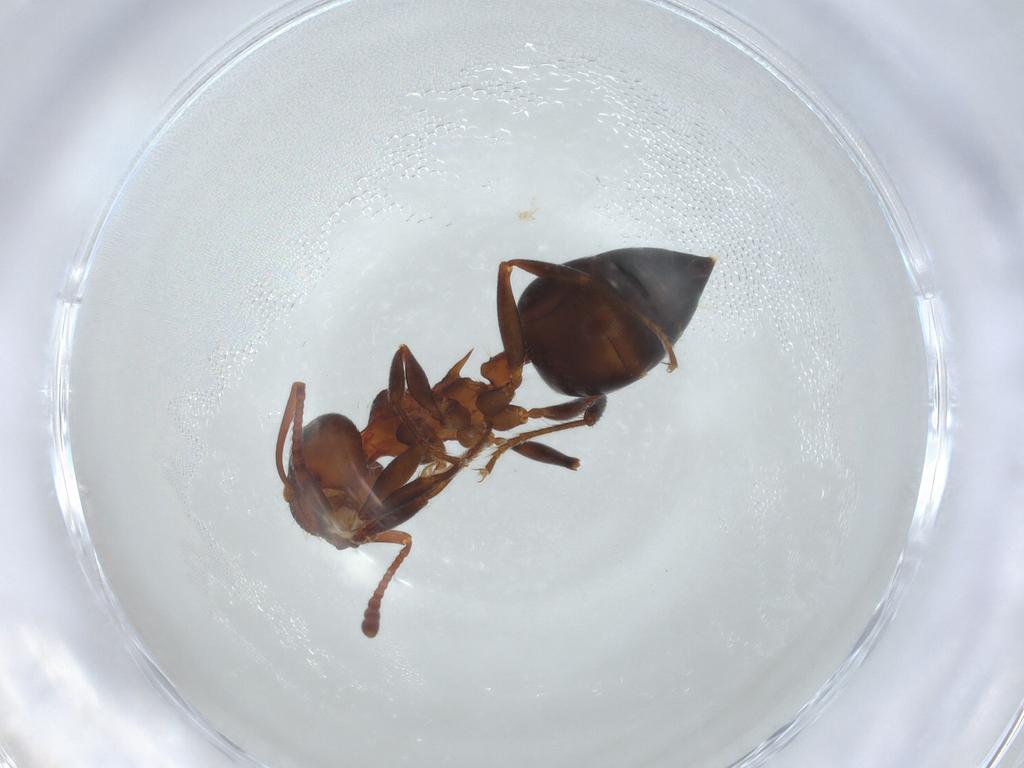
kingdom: Animalia
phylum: Arthropoda
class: Insecta
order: Hymenoptera
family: Formicidae
